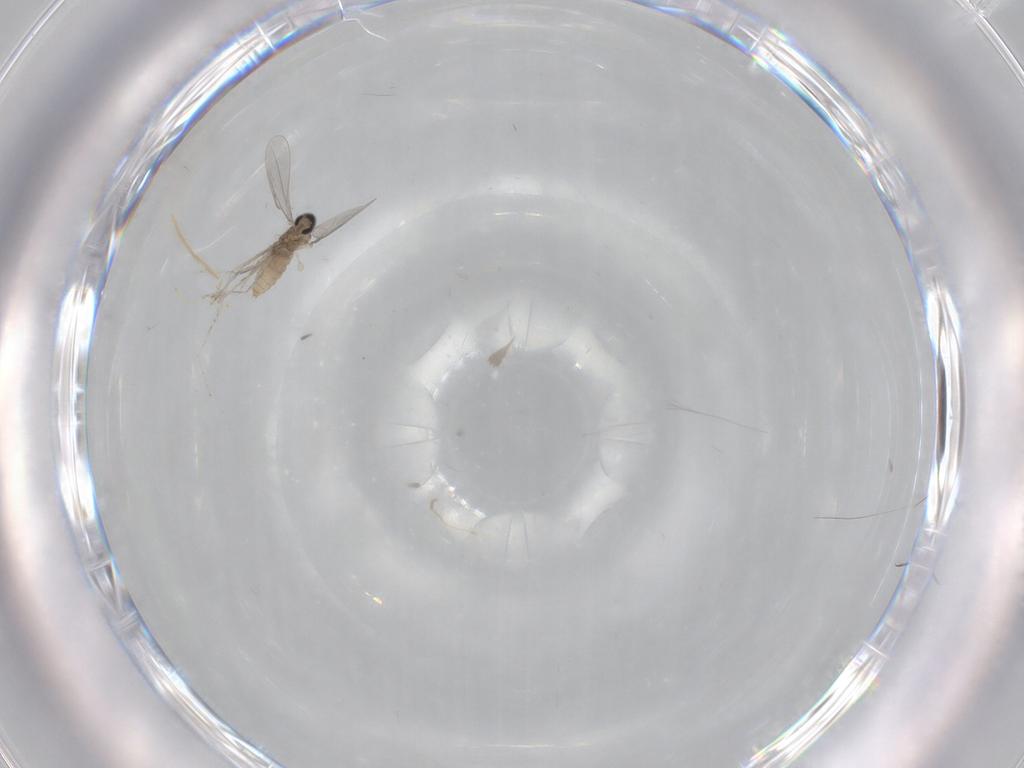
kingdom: Animalia
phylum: Arthropoda
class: Insecta
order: Diptera
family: Chironomidae
